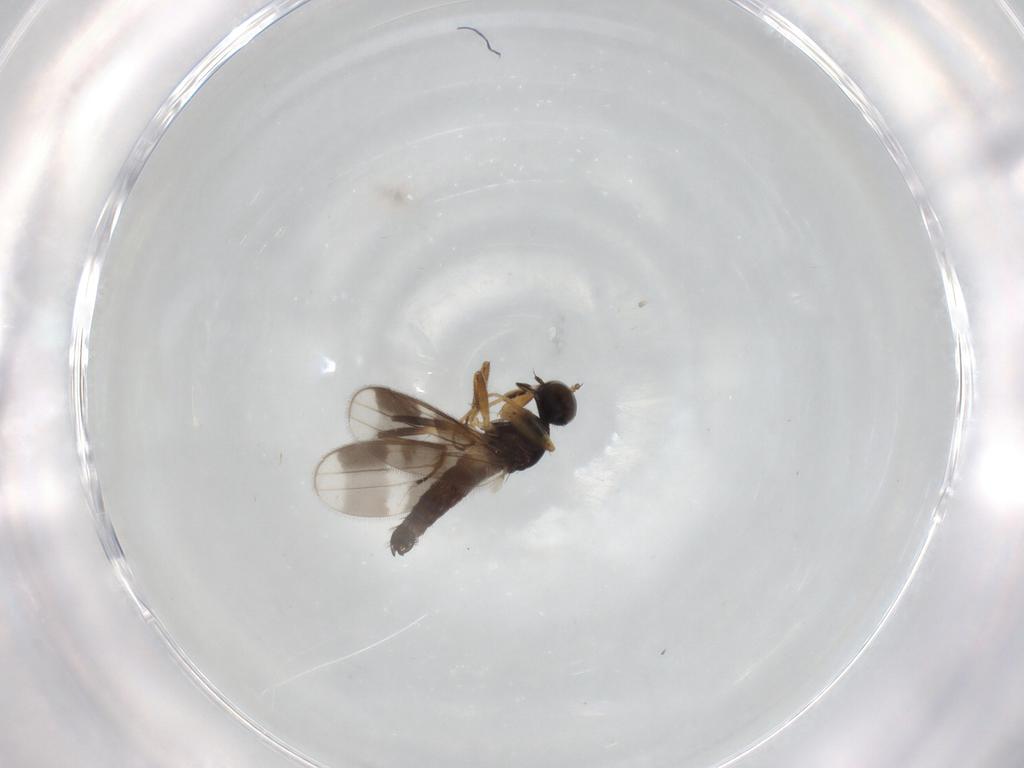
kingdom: Animalia
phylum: Arthropoda
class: Insecta
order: Diptera
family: Hybotidae
